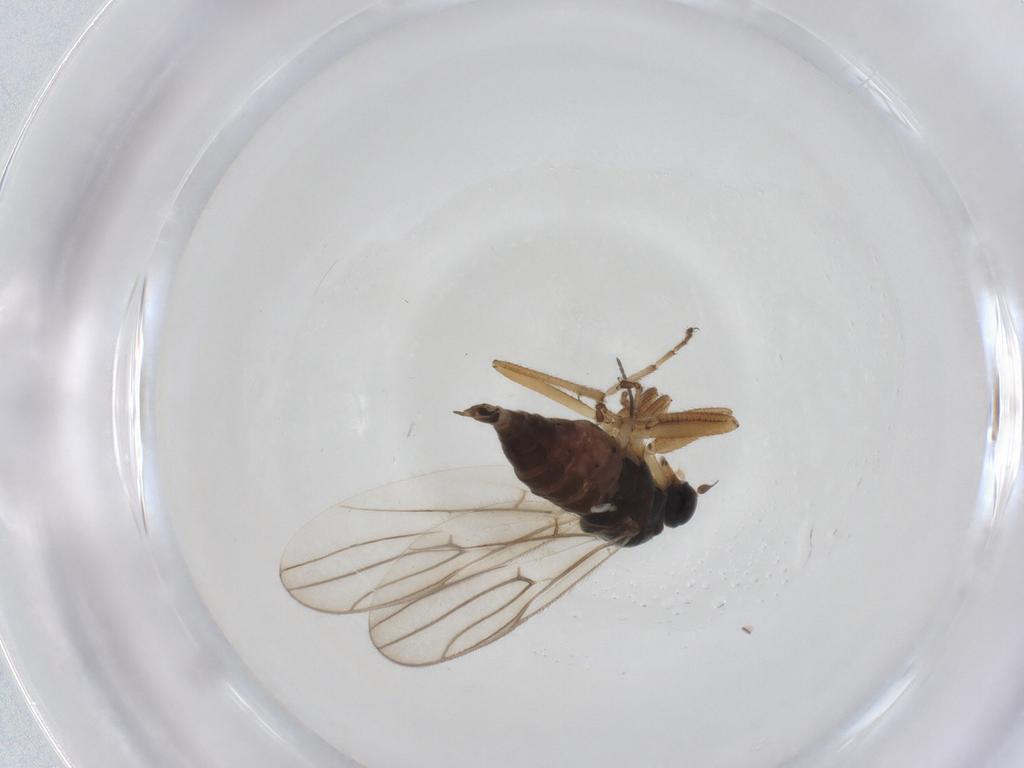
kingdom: Animalia
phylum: Arthropoda
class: Insecta
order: Diptera
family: Hybotidae
